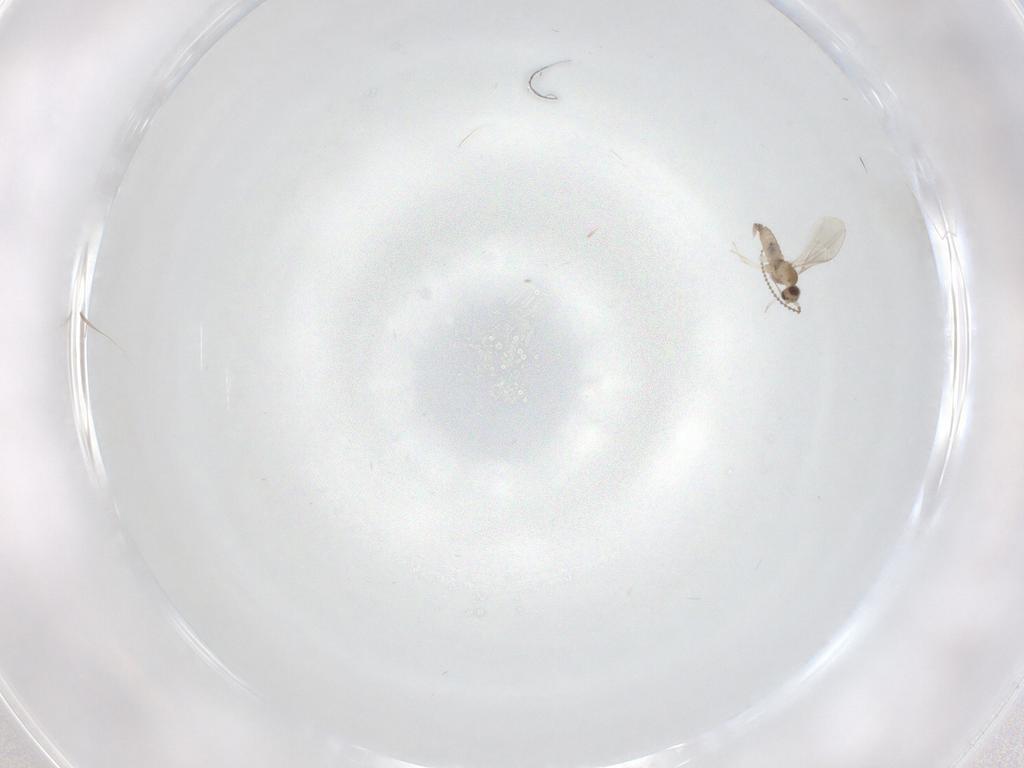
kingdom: Animalia
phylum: Arthropoda
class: Insecta
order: Diptera
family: Cecidomyiidae
